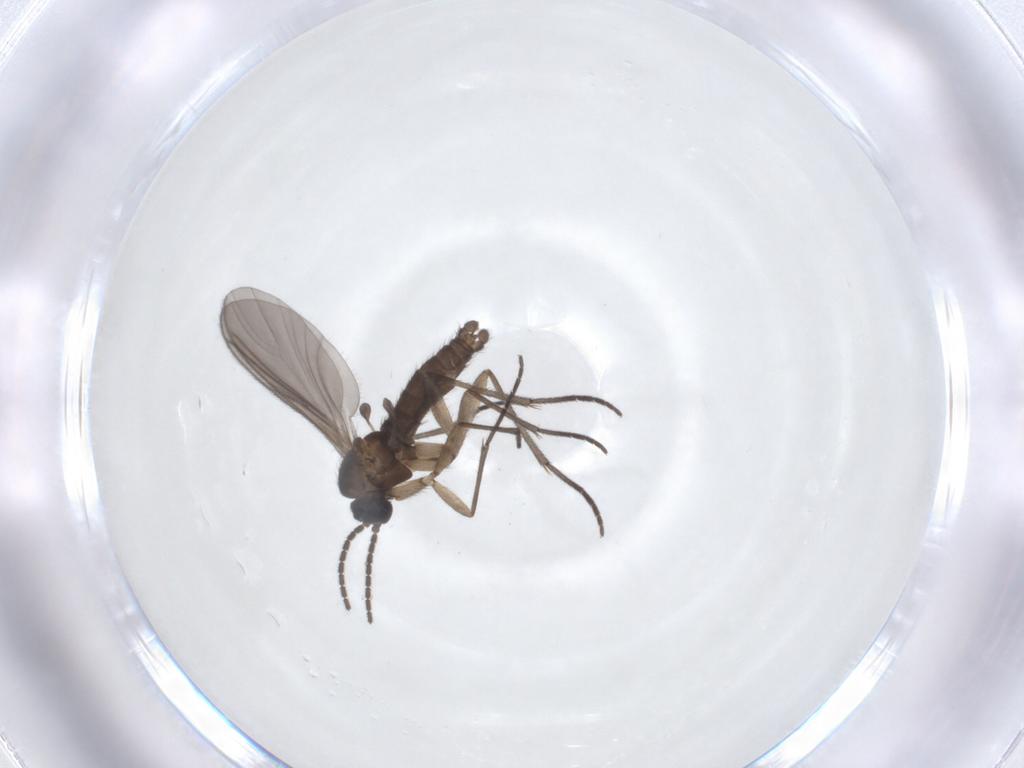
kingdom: Animalia
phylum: Arthropoda
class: Insecta
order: Diptera
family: Sciaridae
